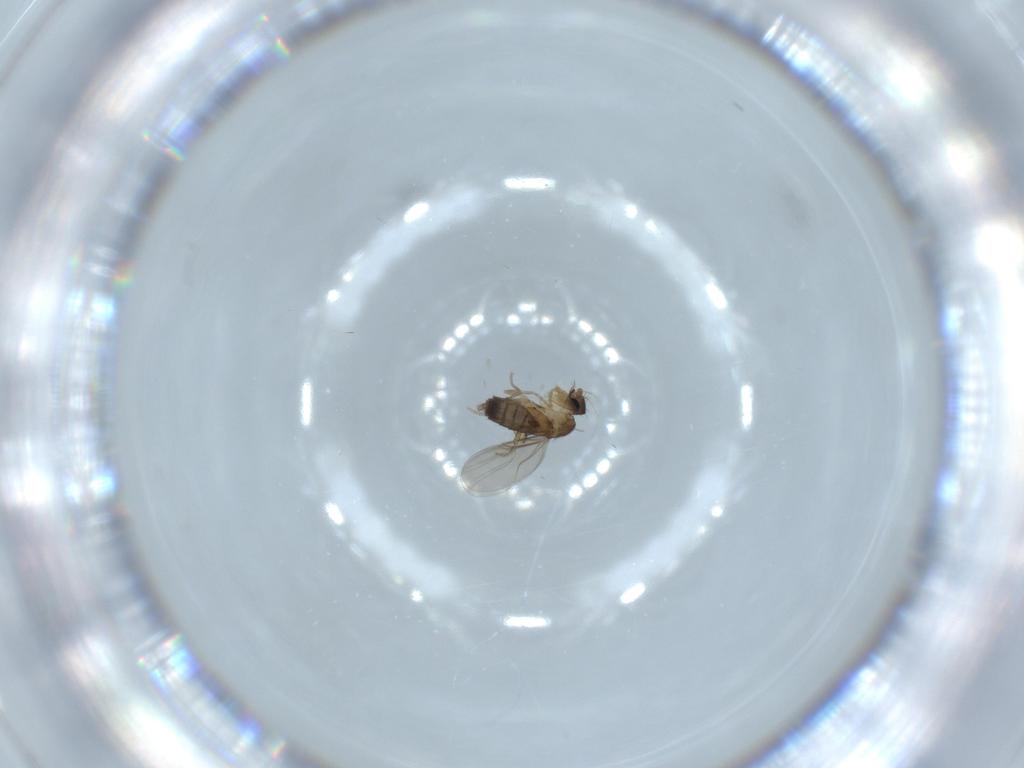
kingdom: Animalia
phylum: Arthropoda
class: Insecta
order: Diptera
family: Phoridae
